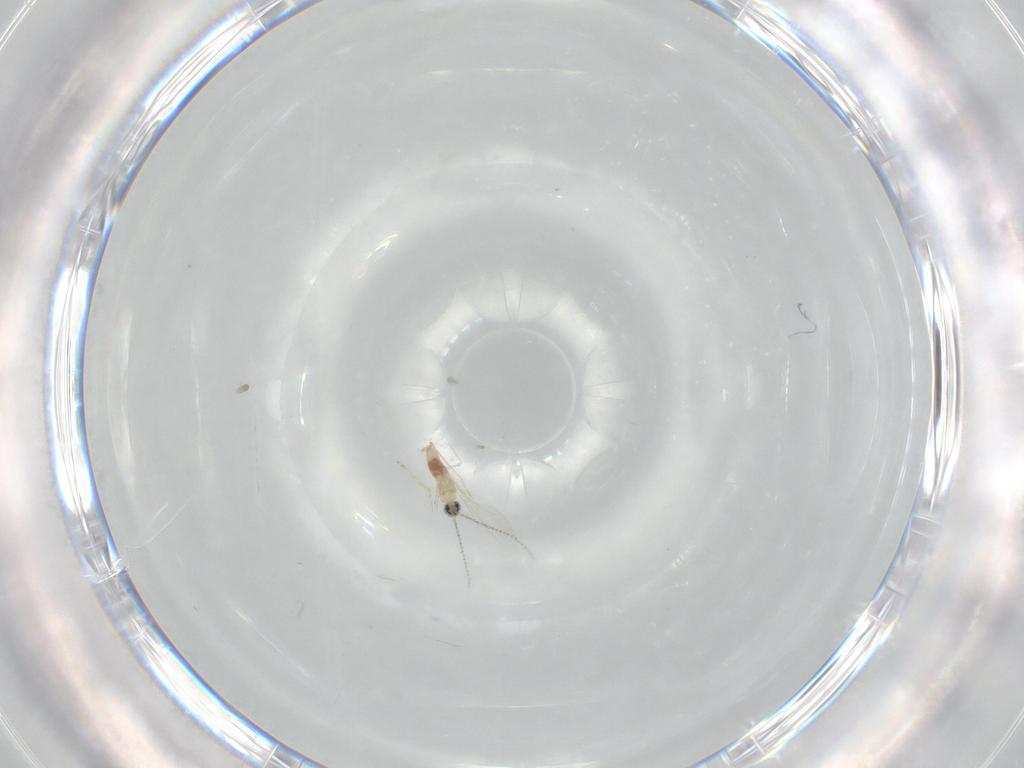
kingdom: Animalia
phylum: Arthropoda
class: Insecta
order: Diptera
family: Cecidomyiidae
